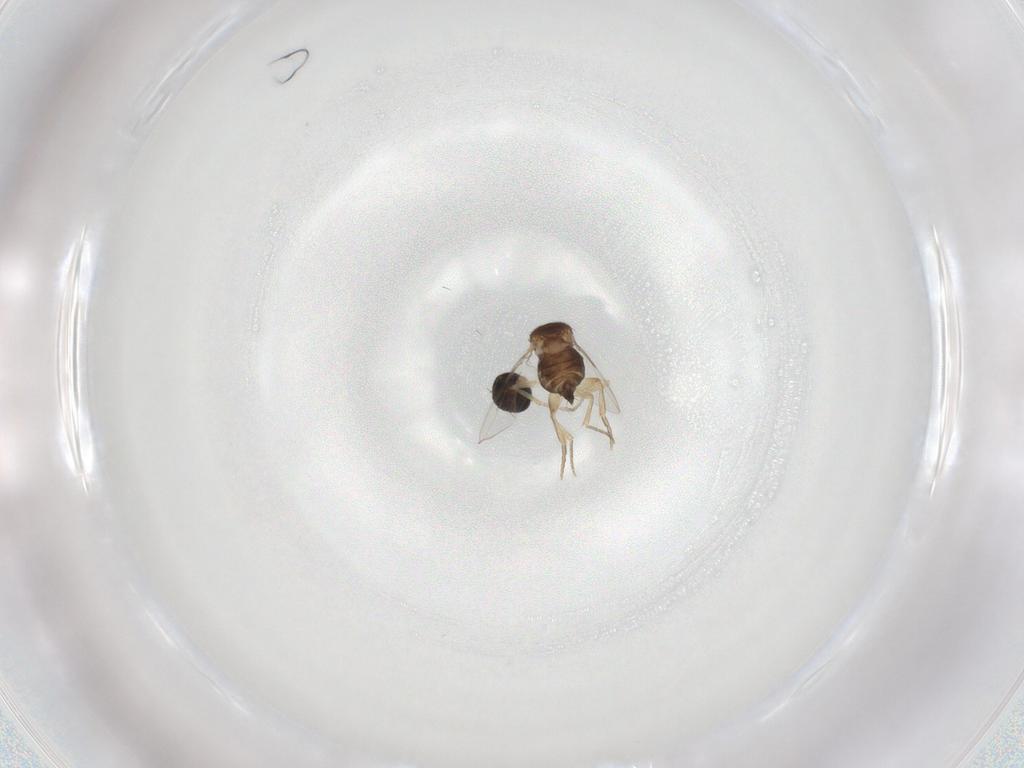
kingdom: Animalia
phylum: Arthropoda
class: Insecta
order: Diptera
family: Phoridae
